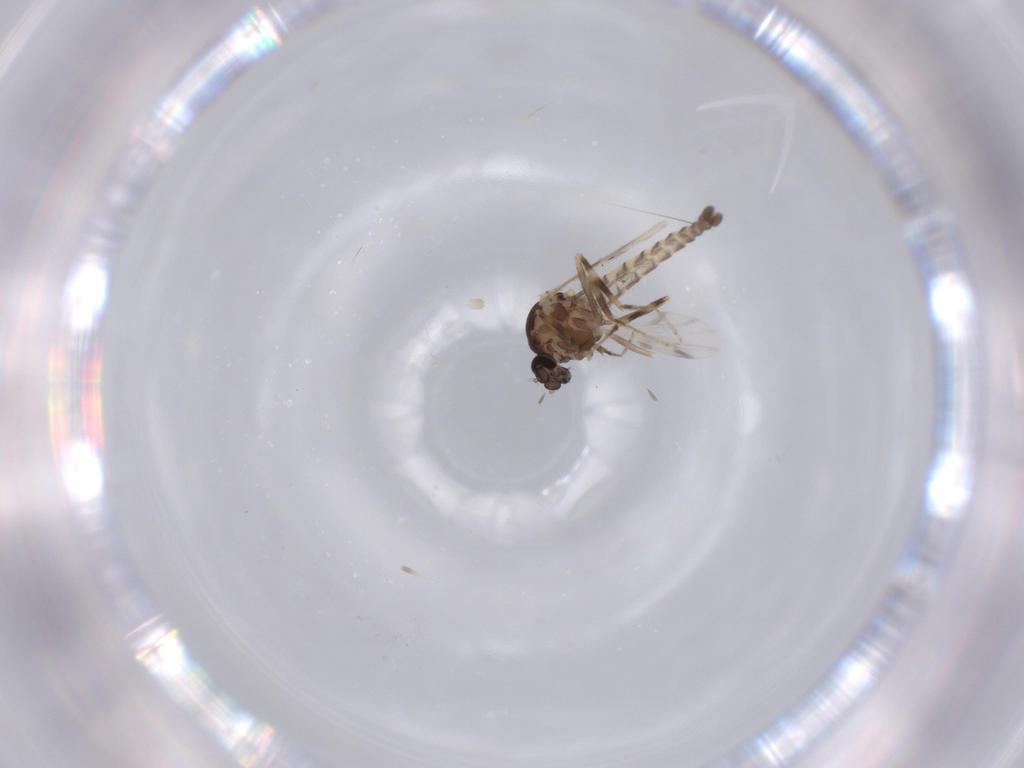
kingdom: Animalia
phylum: Arthropoda
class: Insecta
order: Diptera
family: Ceratopogonidae
